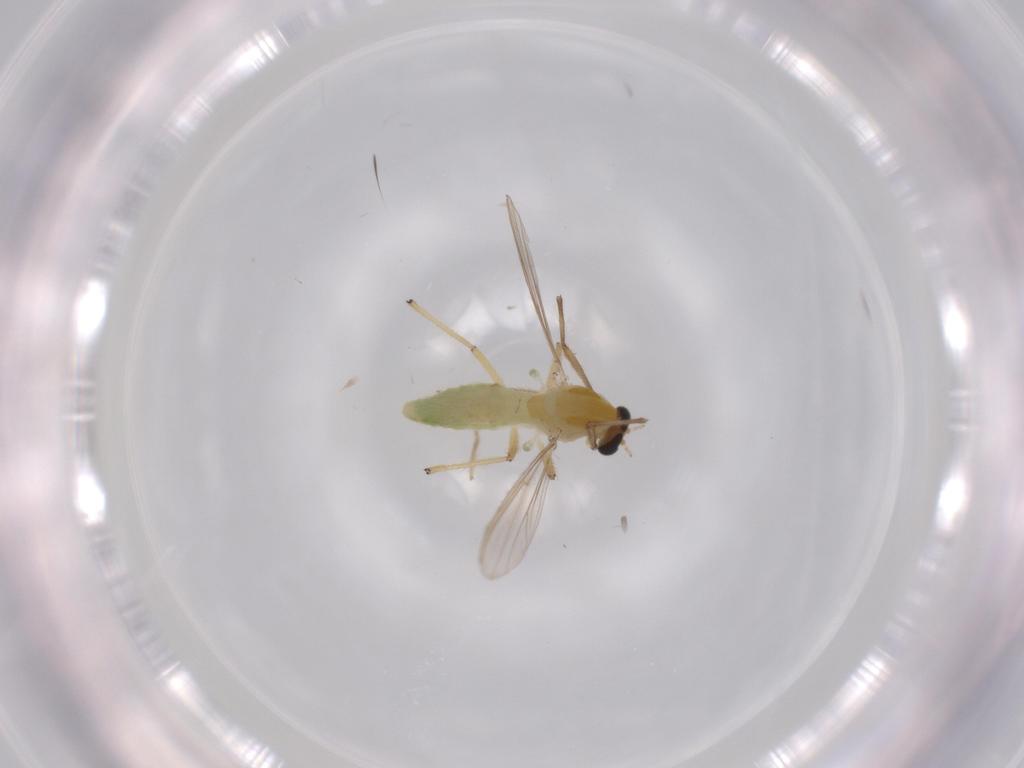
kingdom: Animalia
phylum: Arthropoda
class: Insecta
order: Diptera
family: Chironomidae
